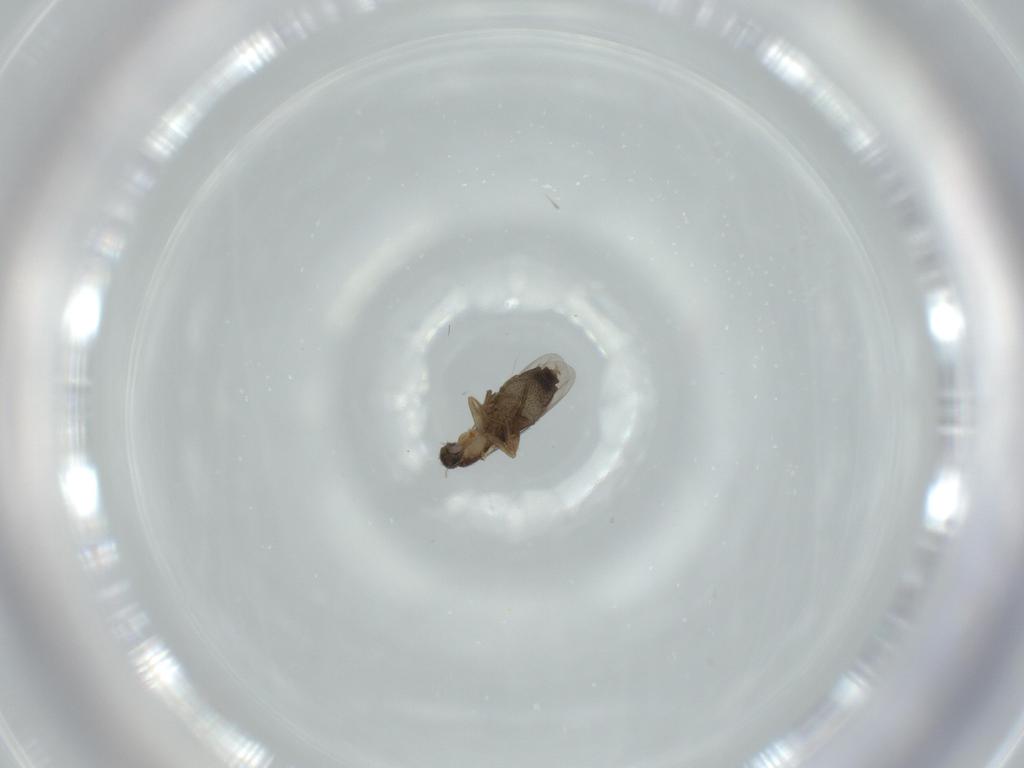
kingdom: Animalia
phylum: Arthropoda
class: Insecta
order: Diptera
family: Phoridae
